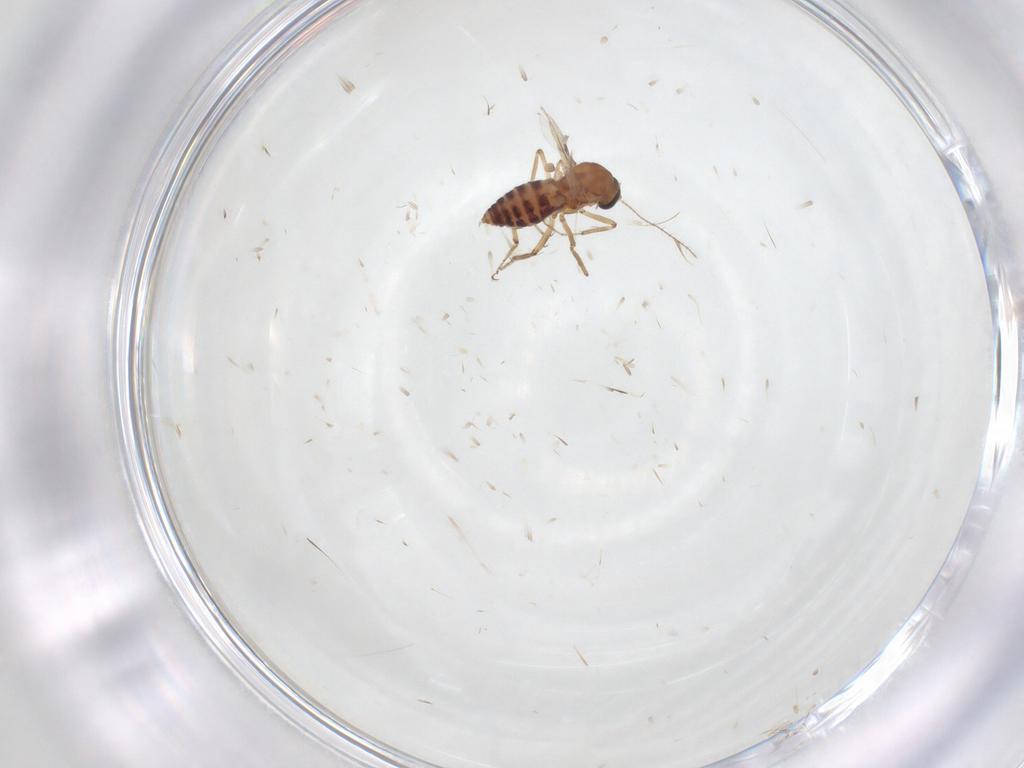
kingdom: Animalia
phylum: Arthropoda
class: Insecta
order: Diptera
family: Ceratopogonidae
